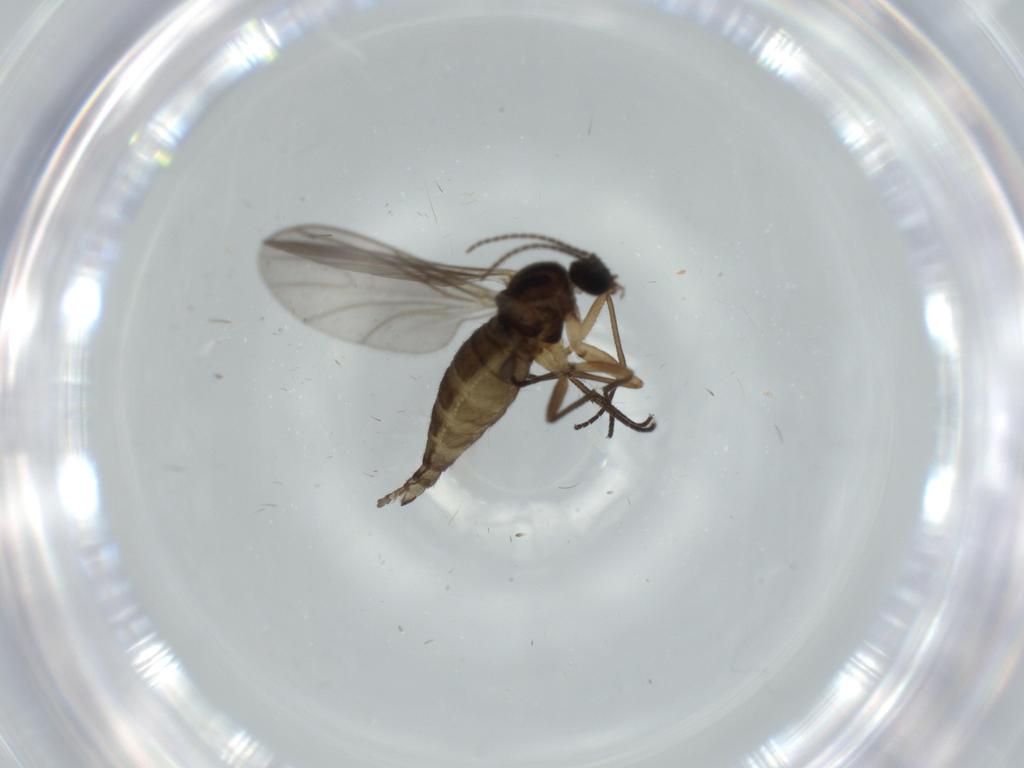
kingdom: Animalia
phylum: Arthropoda
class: Insecta
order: Diptera
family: Sciaridae
